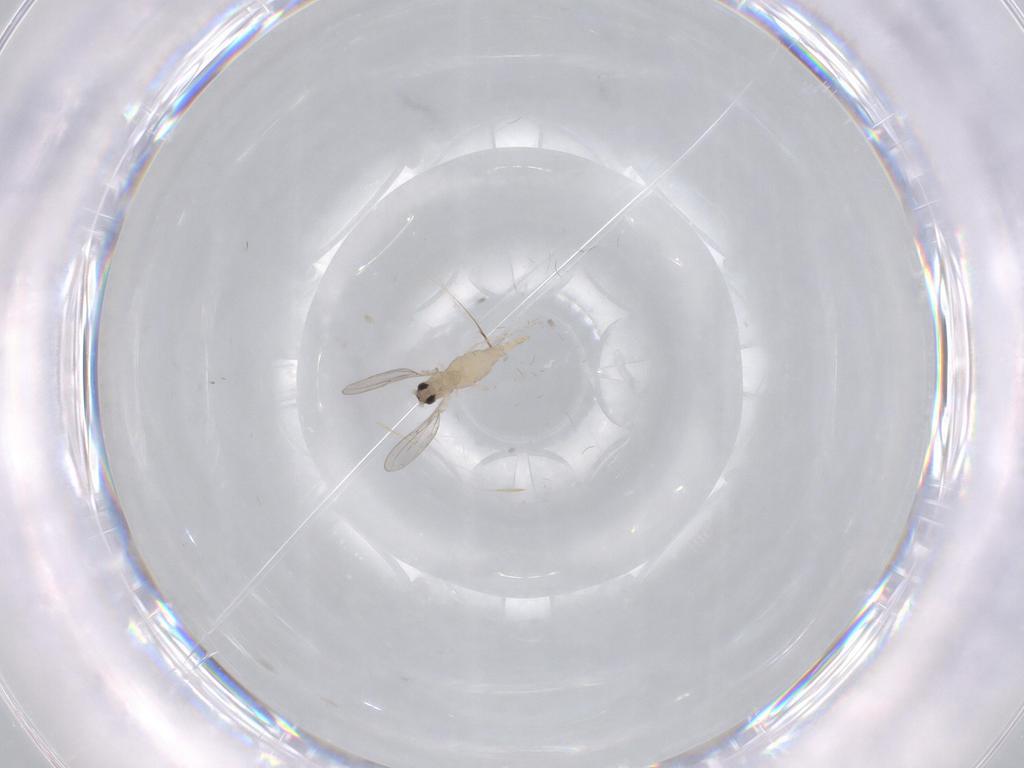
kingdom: Animalia
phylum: Arthropoda
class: Insecta
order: Diptera
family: Cecidomyiidae
